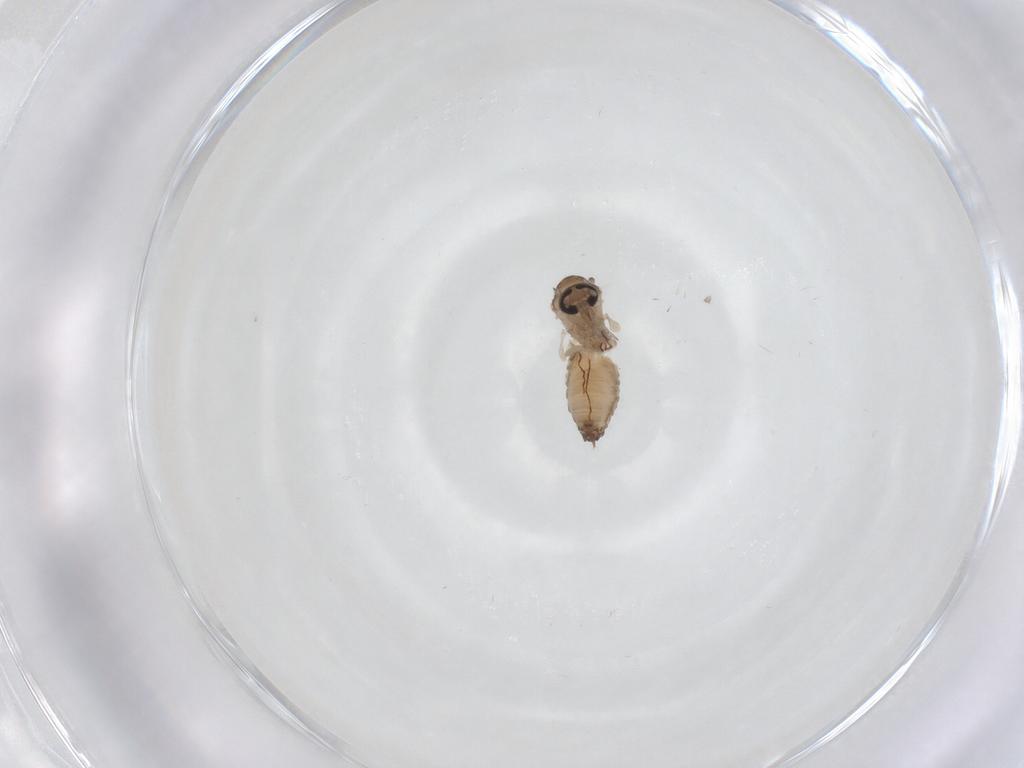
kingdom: Animalia
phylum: Arthropoda
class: Insecta
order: Diptera
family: Psychodidae
